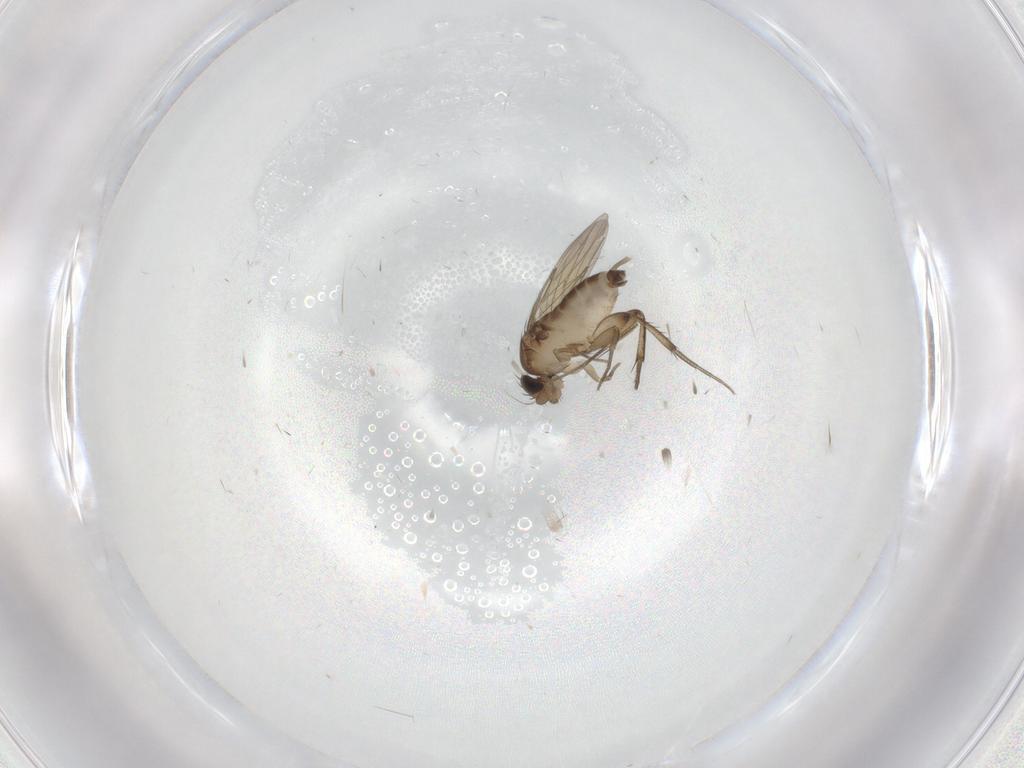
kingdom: Animalia
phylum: Arthropoda
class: Insecta
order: Diptera
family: Phoridae
